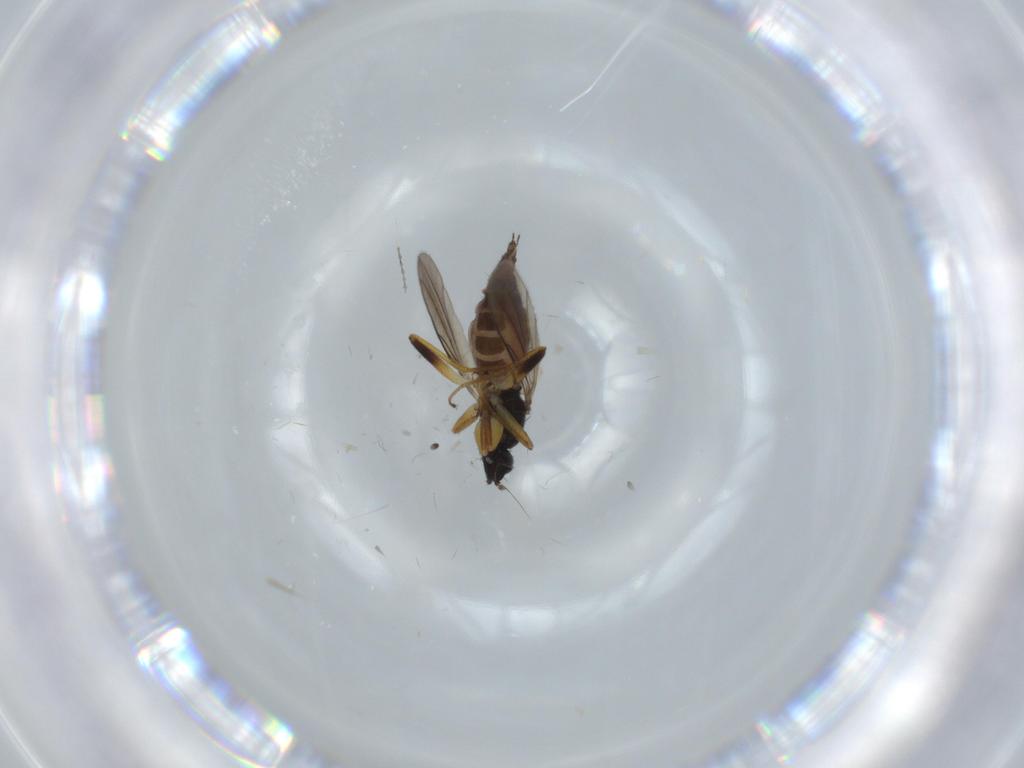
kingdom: Animalia
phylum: Arthropoda
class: Insecta
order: Diptera
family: Hybotidae
